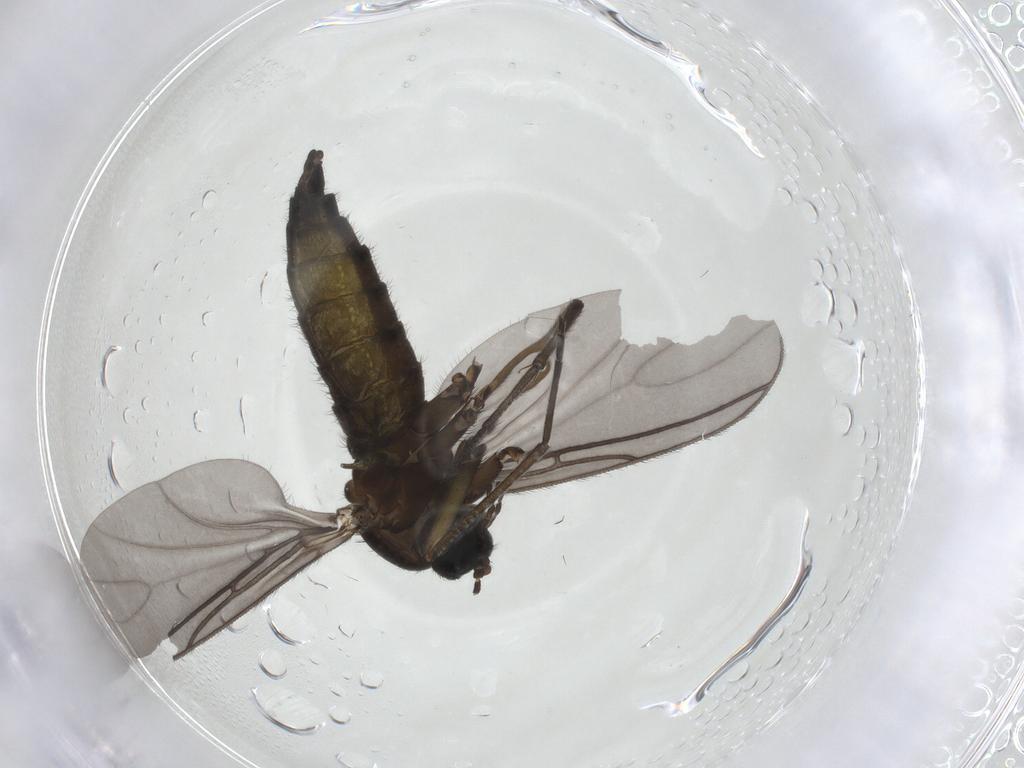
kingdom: Animalia
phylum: Arthropoda
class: Insecta
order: Diptera
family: Sciaridae
